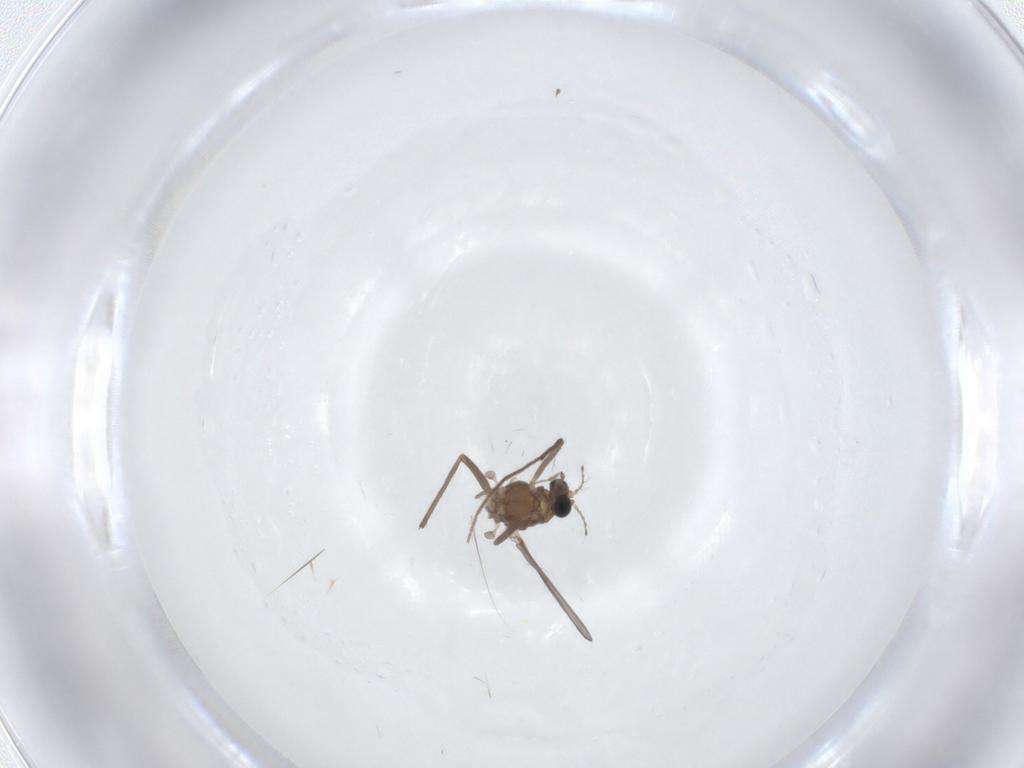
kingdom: Animalia
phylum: Arthropoda
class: Insecta
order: Diptera
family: Chironomidae
